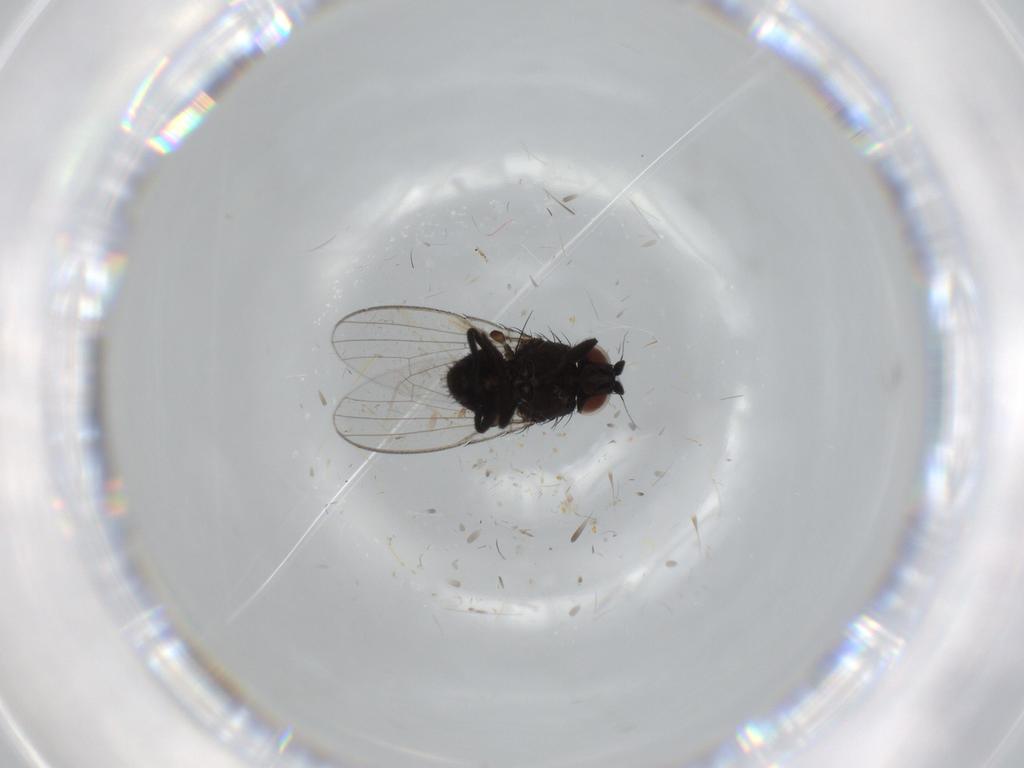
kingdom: Animalia
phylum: Arthropoda
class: Insecta
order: Diptera
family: Cecidomyiidae
